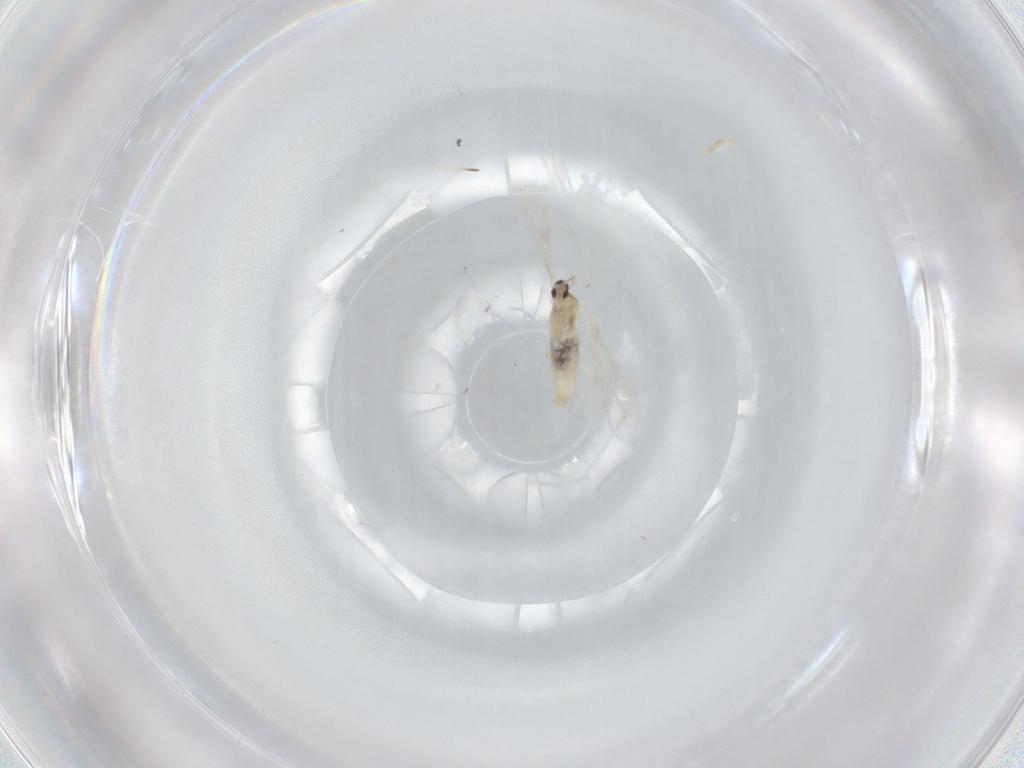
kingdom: Animalia
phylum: Arthropoda
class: Insecta
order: Diptera
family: Cecidomyiidae
